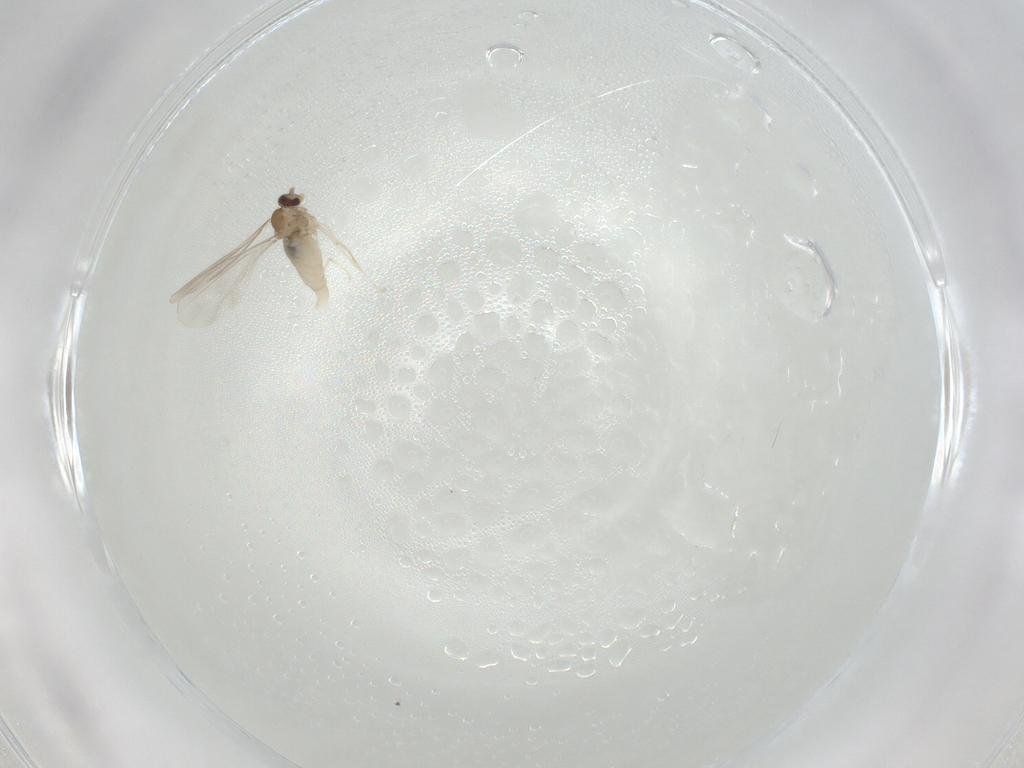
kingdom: Animalia
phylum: Arthropoda
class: Insecta
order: Diptera
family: Cecidomyiidae
